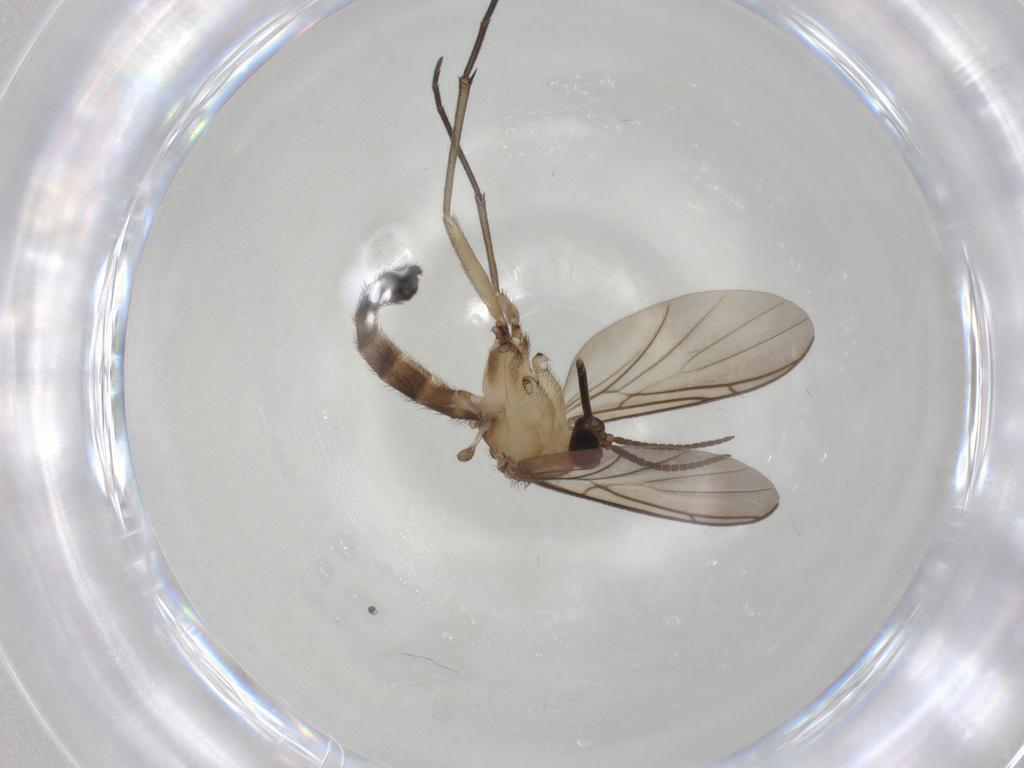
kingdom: Animalia
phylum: Arthropoda
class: Insecta
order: Diptera
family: Keroplatidae
